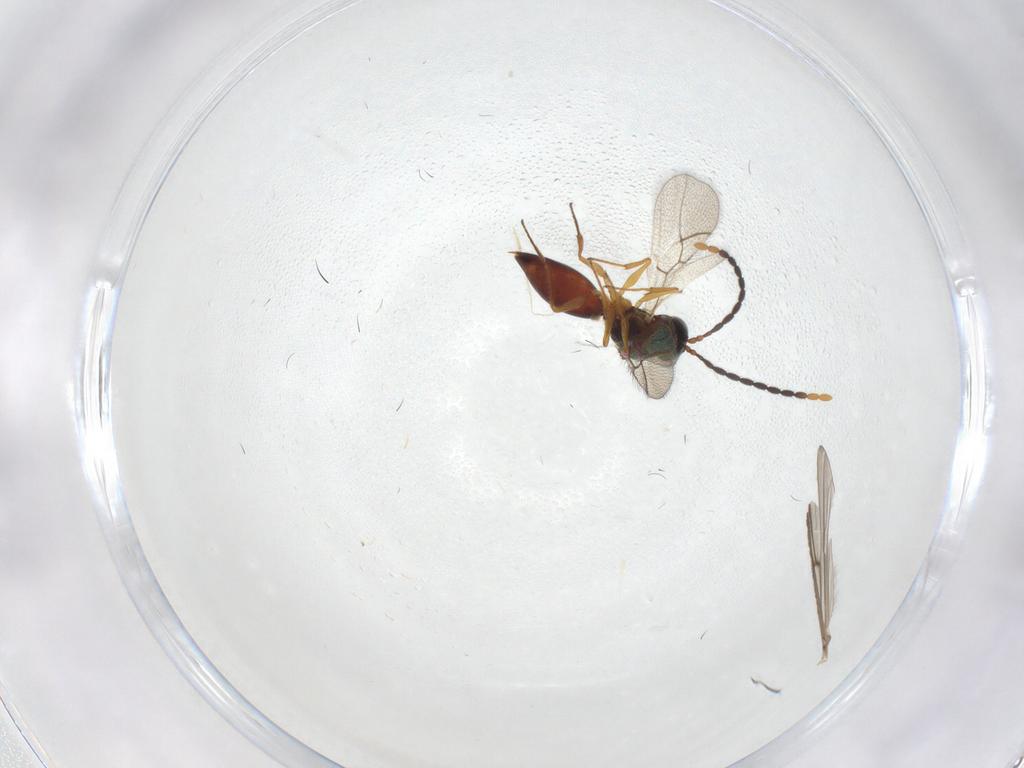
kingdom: Animalia
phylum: Arthropoda
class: Insecta
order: Hymenoptera
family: Figitidae
